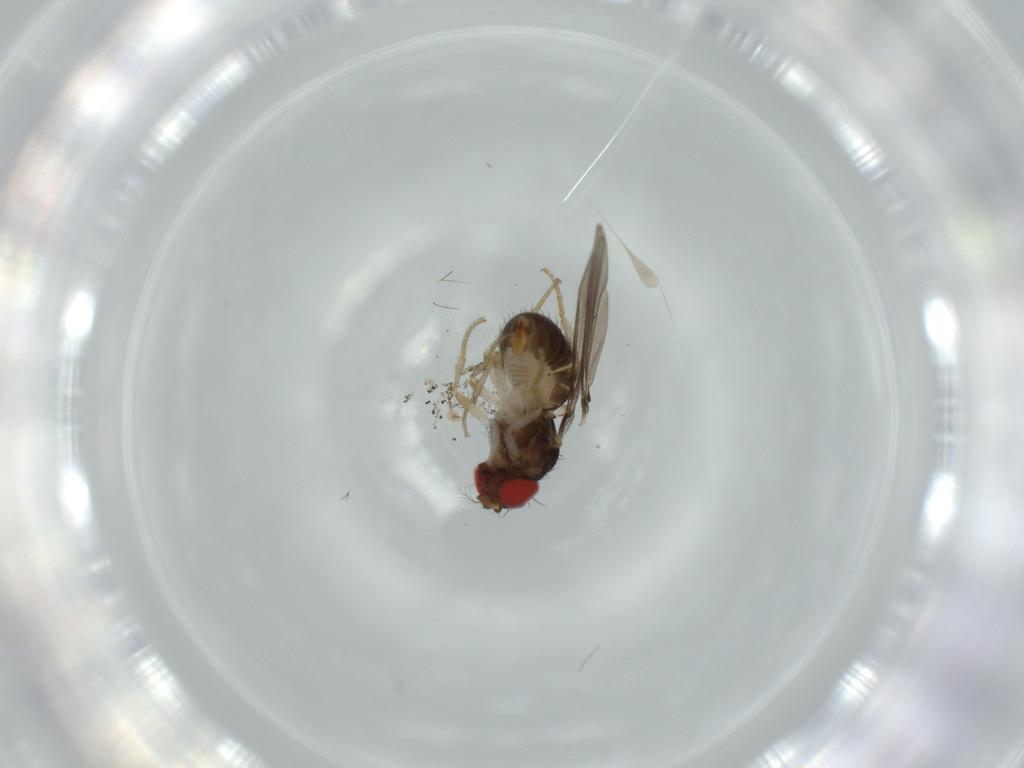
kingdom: Animalia
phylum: Arthropoda
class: Insecta
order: Diptera
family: Drosophilidae
